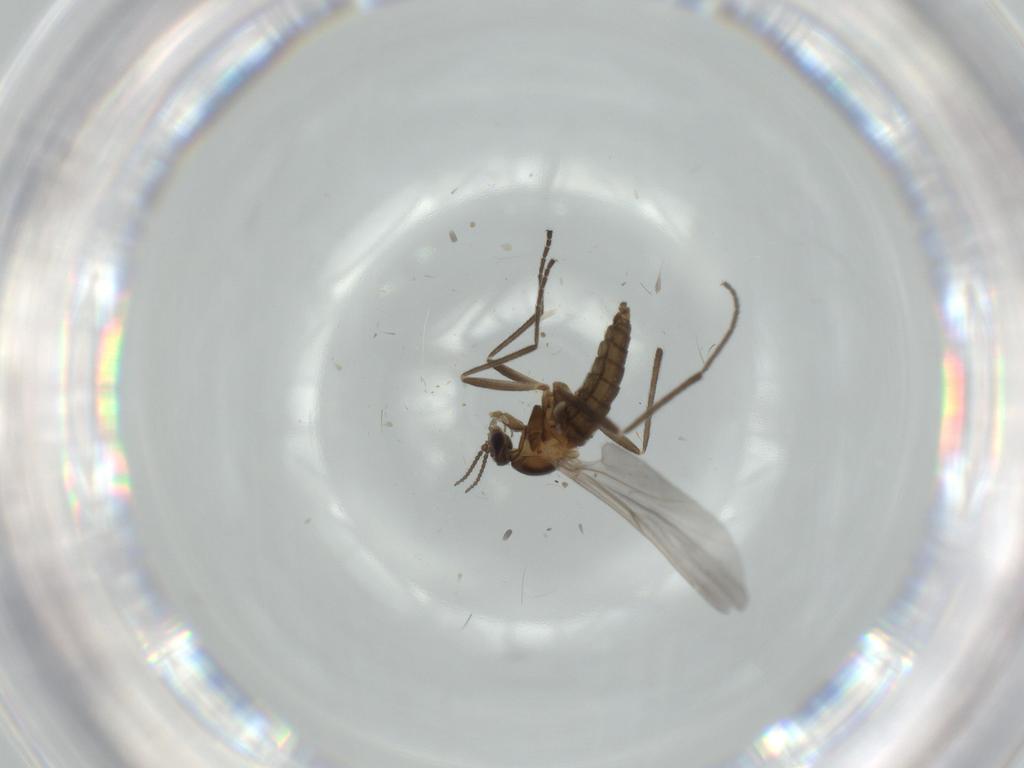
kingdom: Animalia
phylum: Arthropoda
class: Insecta
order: Diptera
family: Cecidomyiidae
